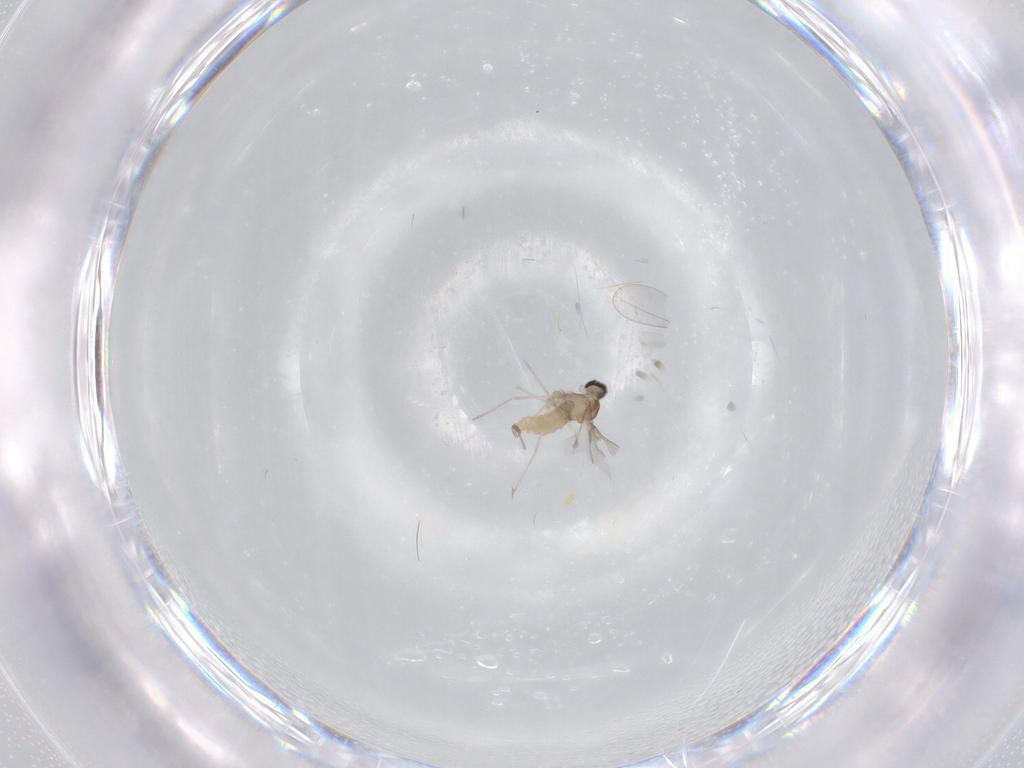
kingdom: Animalia
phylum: Arthropoda
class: Insecta
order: Diptera
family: Cecidomyiidae
